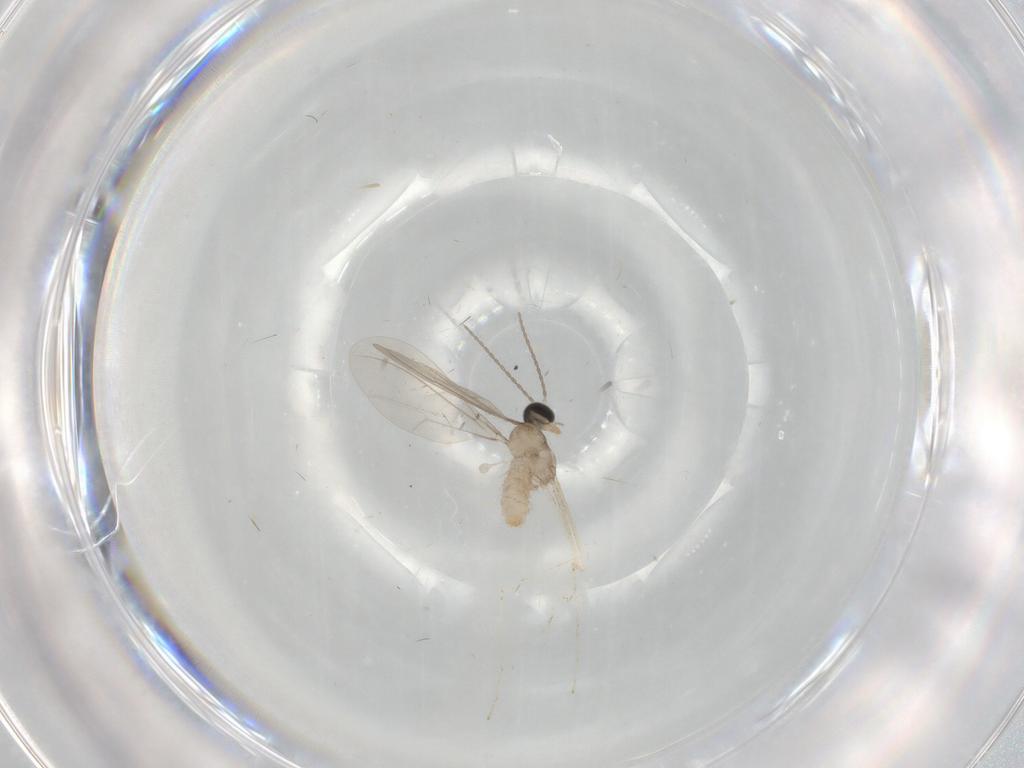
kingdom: Animalia
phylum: Arthropoda
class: Insecta
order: Diptera
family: Cecidomyiidae
